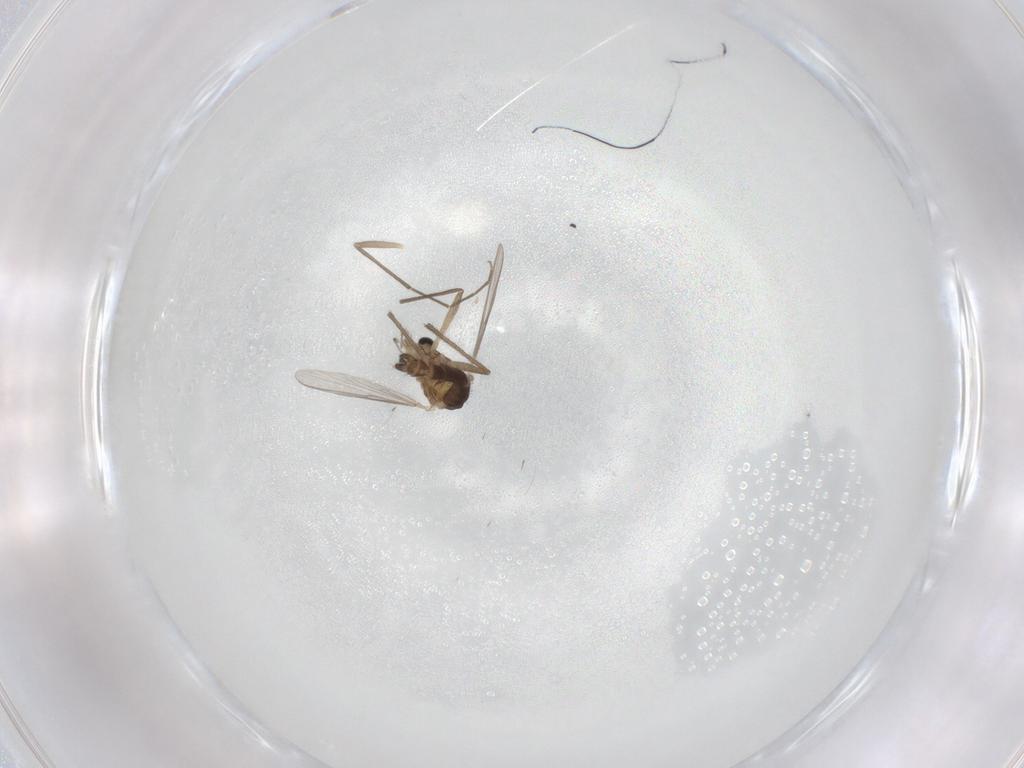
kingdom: Animalia
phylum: Arthropoda
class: Insecta
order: Diptera
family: Chironomidae
